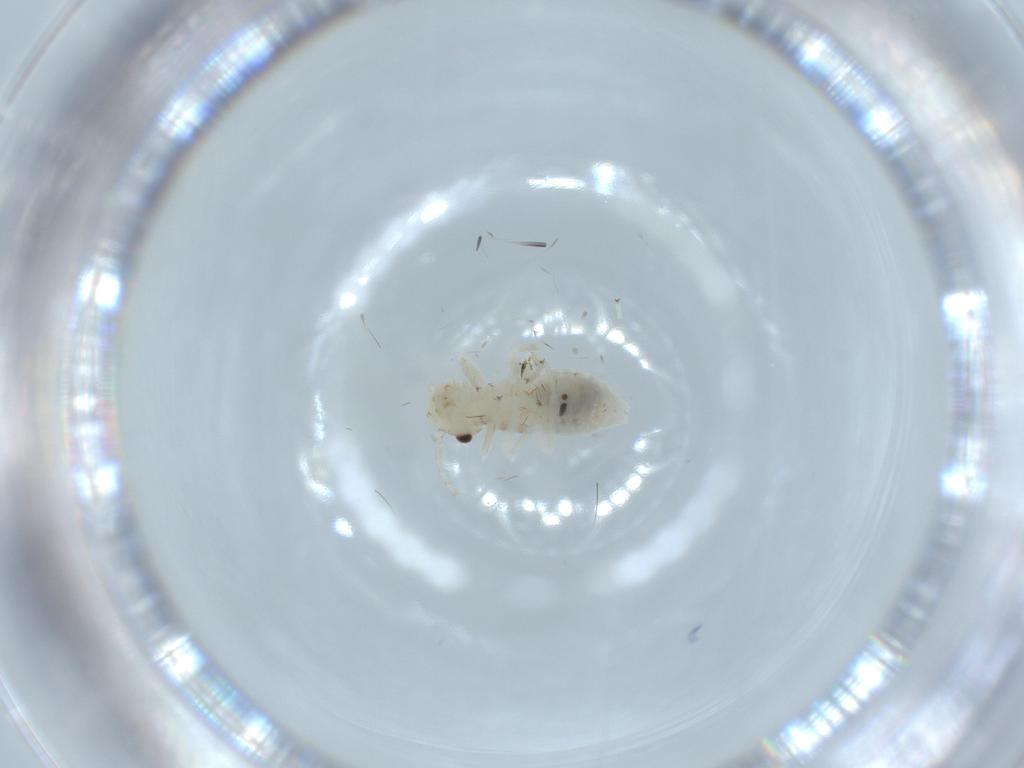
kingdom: Animalia
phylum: Arthropoda
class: Insecta
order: Psocodea
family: Amphipsocidae
